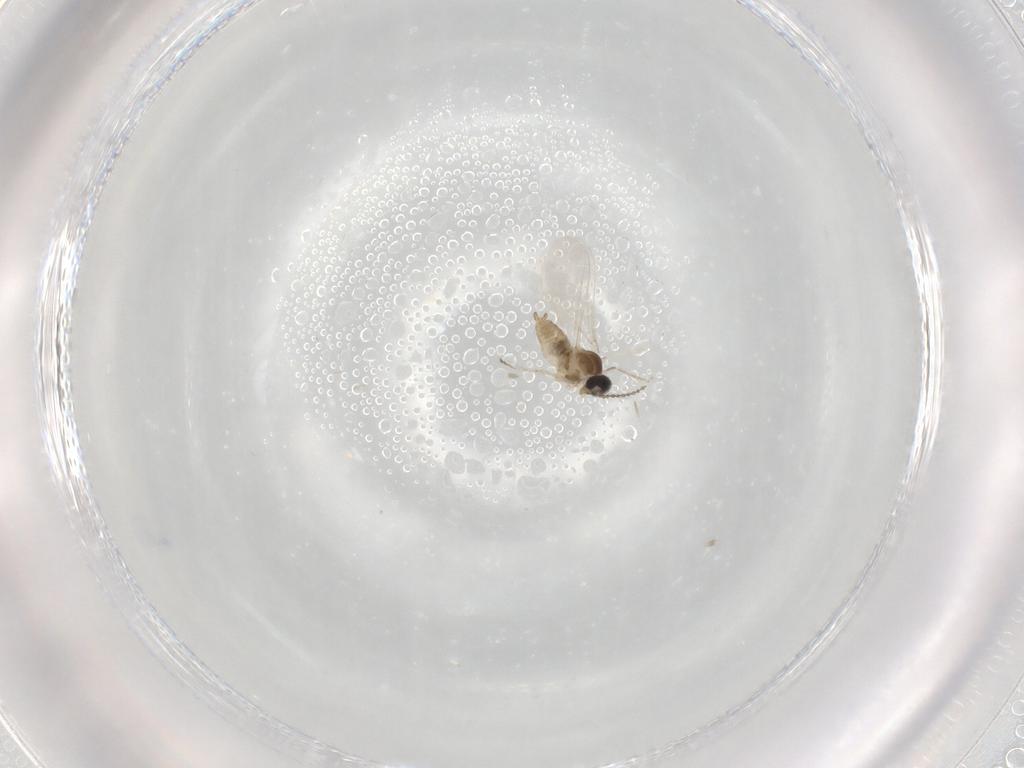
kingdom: Animalia
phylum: Arthropoda
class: Insecta
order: Diptera
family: Cecidomyiidae
